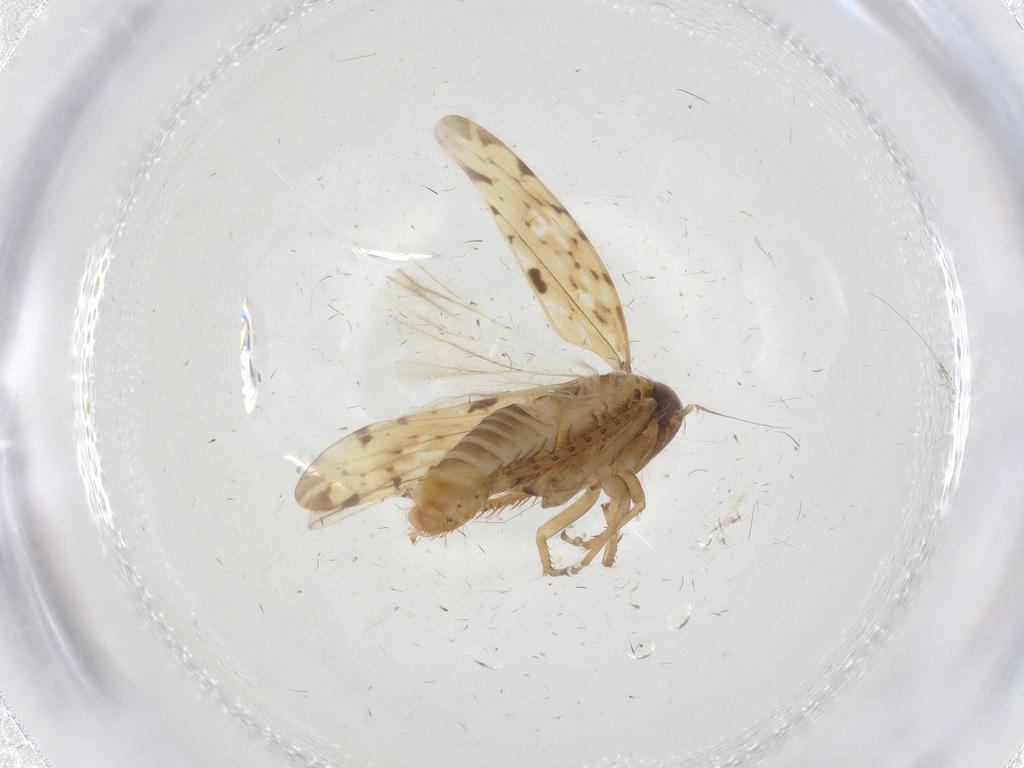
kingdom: Animalia
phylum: Arthropoda
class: Insecta
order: Hemiptera
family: Cicadellidae
